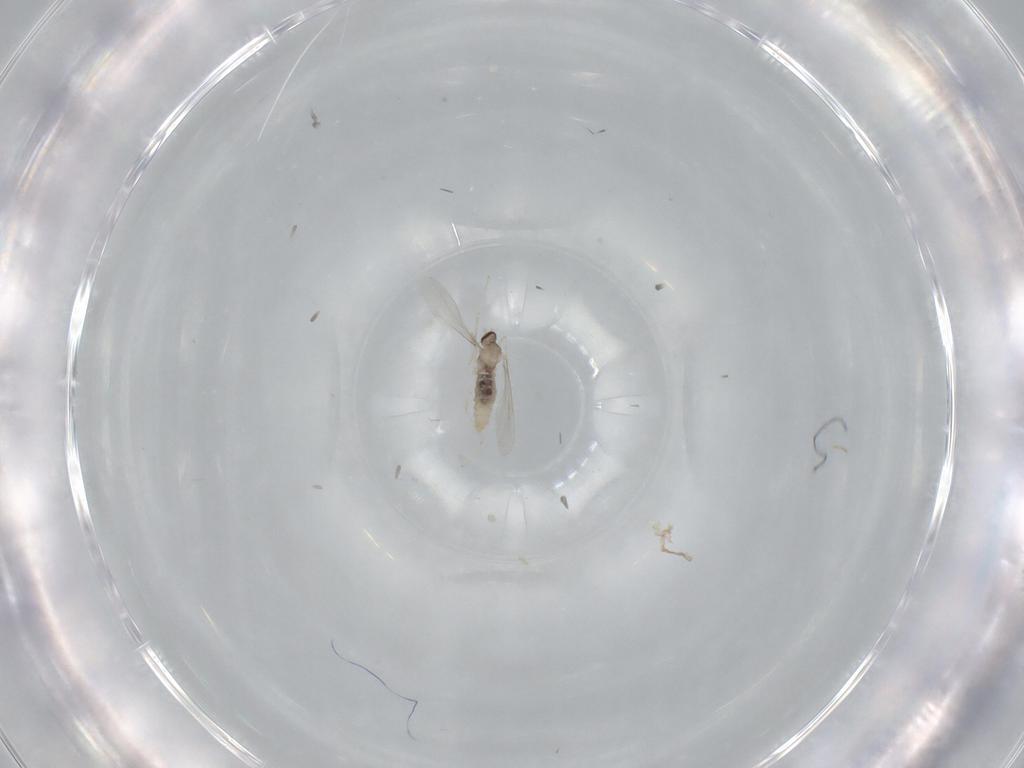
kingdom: Animalia
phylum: Arthropoda
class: Insecta
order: Diptera
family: Cecidomyiidae
